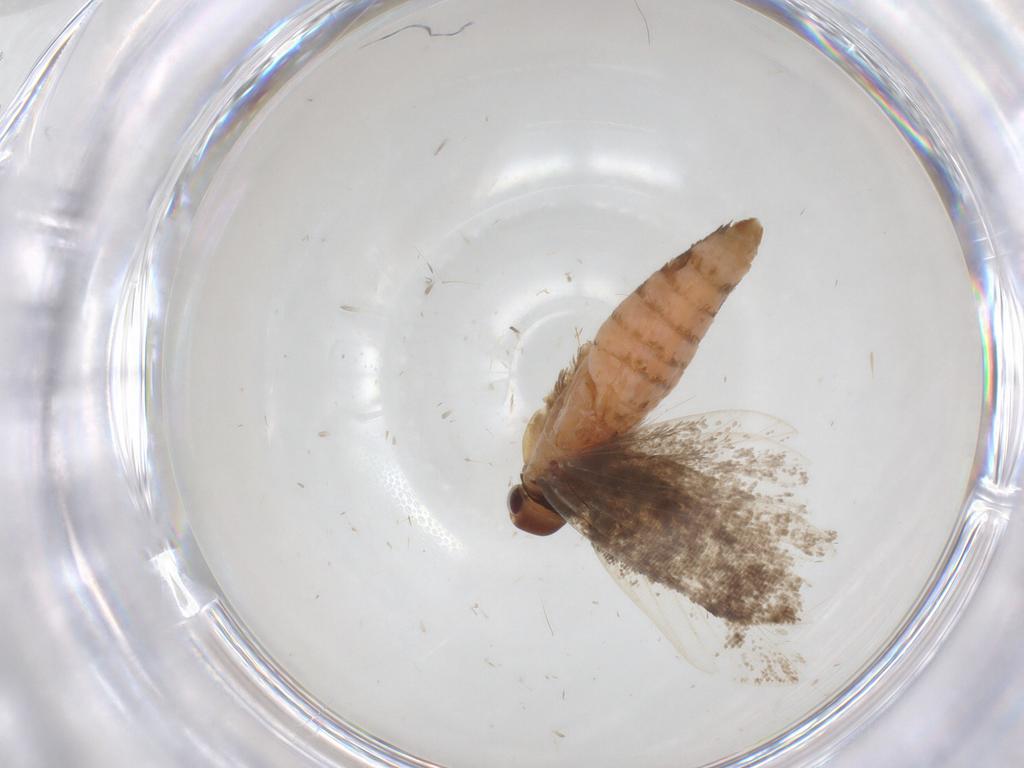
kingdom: Animalia
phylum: Arthropoda
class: Insecta
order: Lepidoptera
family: Gelechiidae
